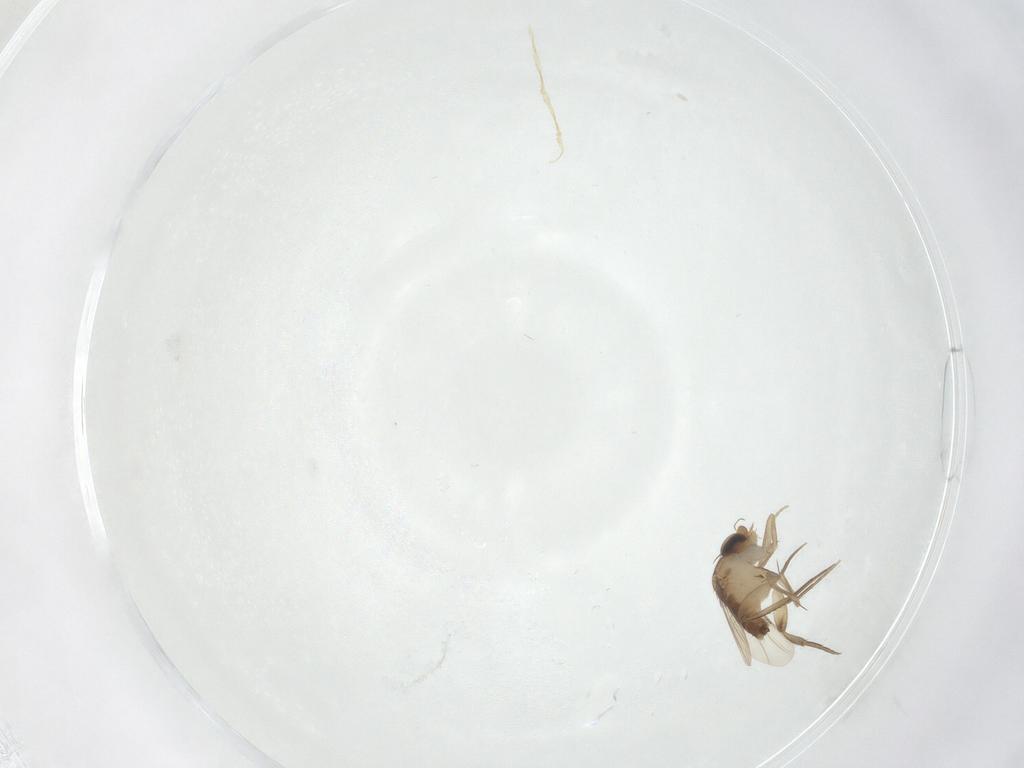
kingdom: Animalia
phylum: Arthropoda
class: Insecta
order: Diptera
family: Phoridae
